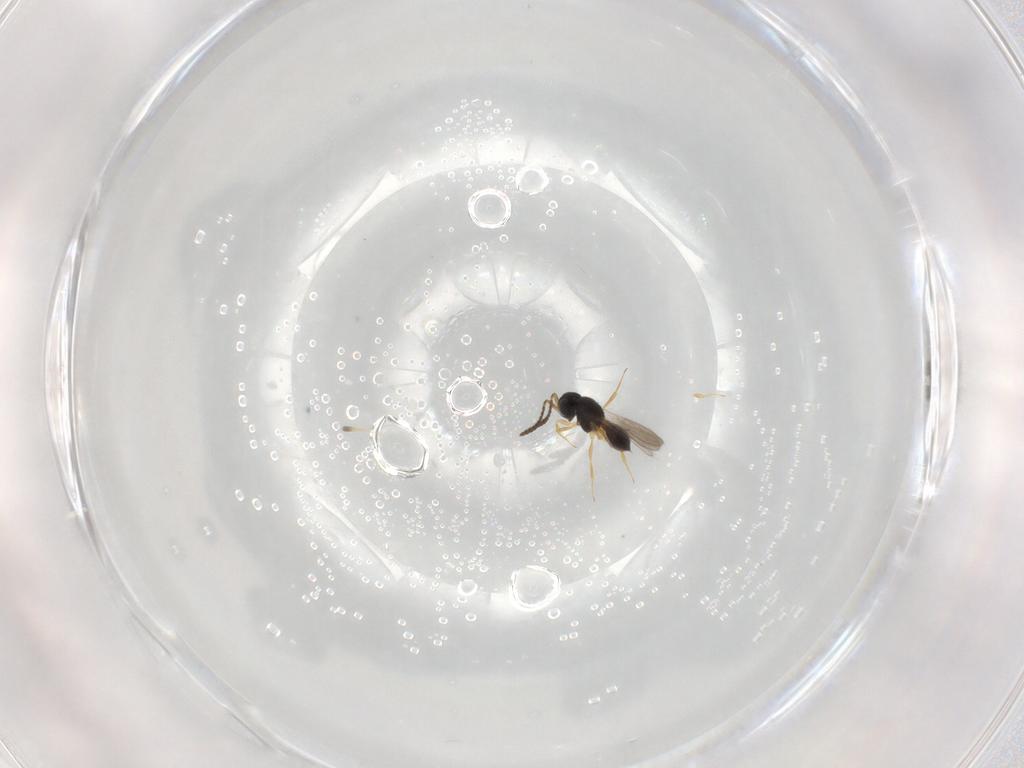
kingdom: Animalia
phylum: Arthropoda
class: Insecta
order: Hymenoptera
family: Scelionidae
